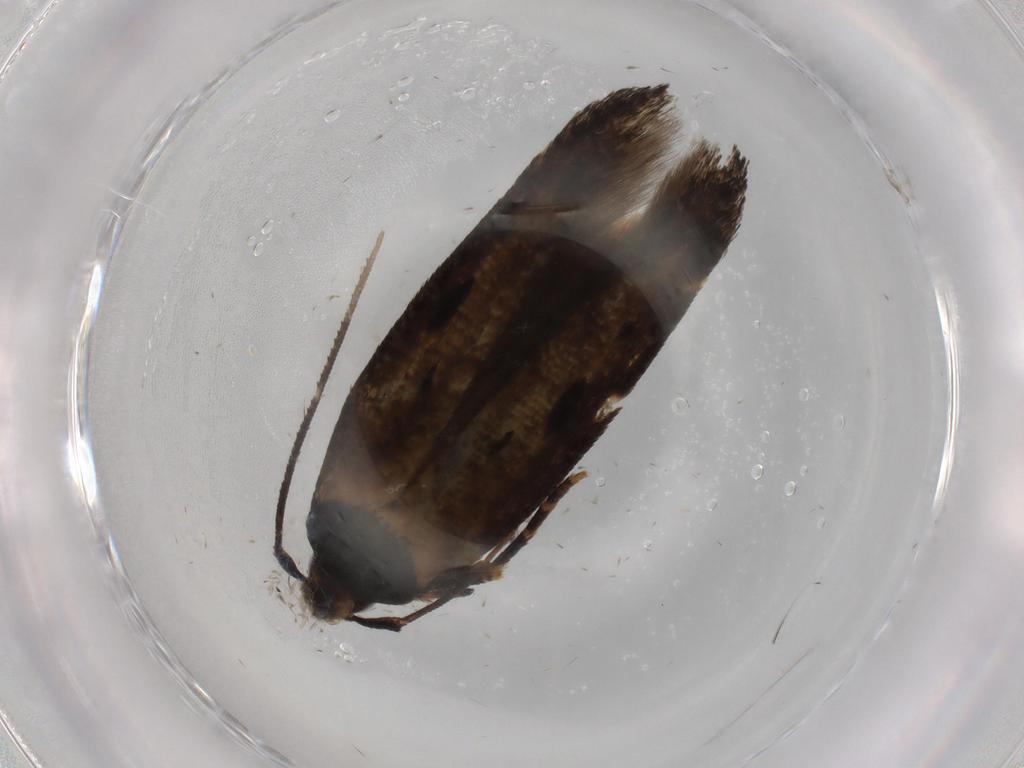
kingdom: Animalia
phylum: Arthropoda
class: Insecta
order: Lepidoptera
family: Cosmopterigidae
